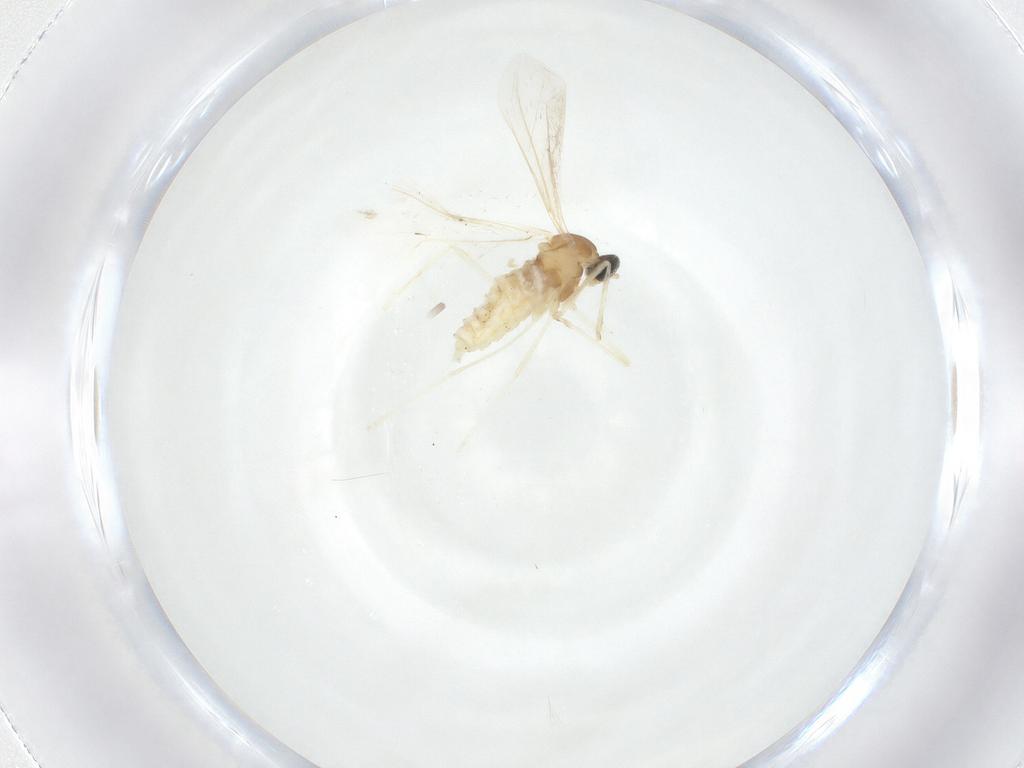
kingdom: Animalia
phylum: Arthropoda
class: Insecta
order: Diptera
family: Cecidomyiidae
